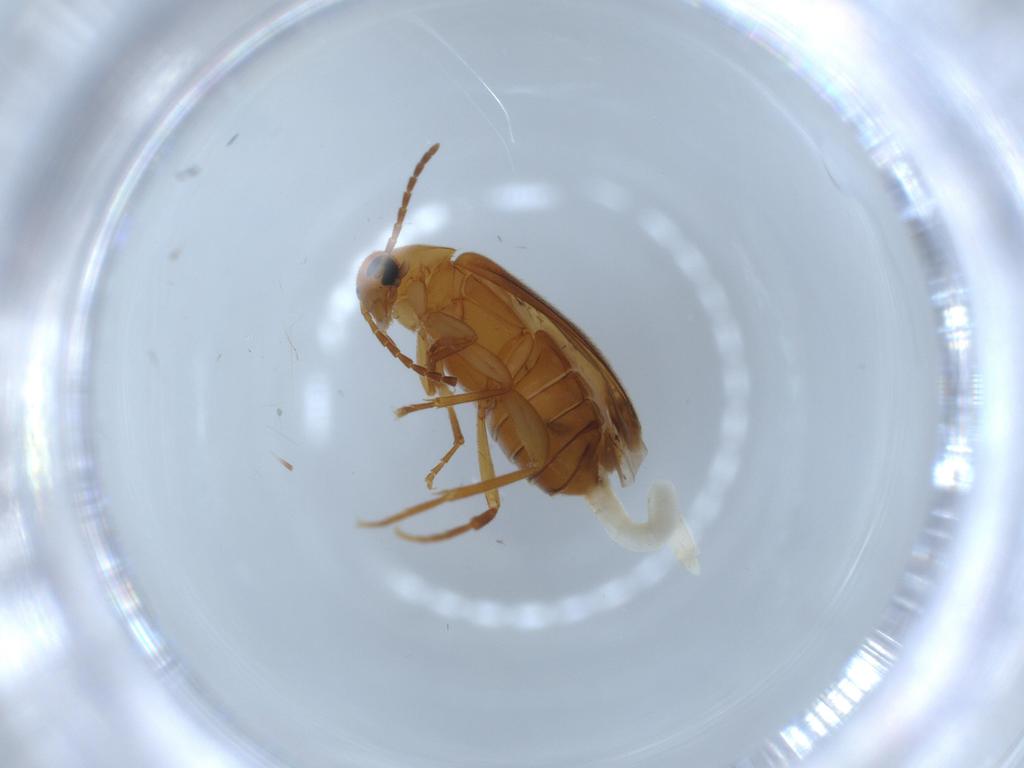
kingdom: Animalia
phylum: Arthropoda
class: Insecta
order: Coleoptera
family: Scraptiidae
